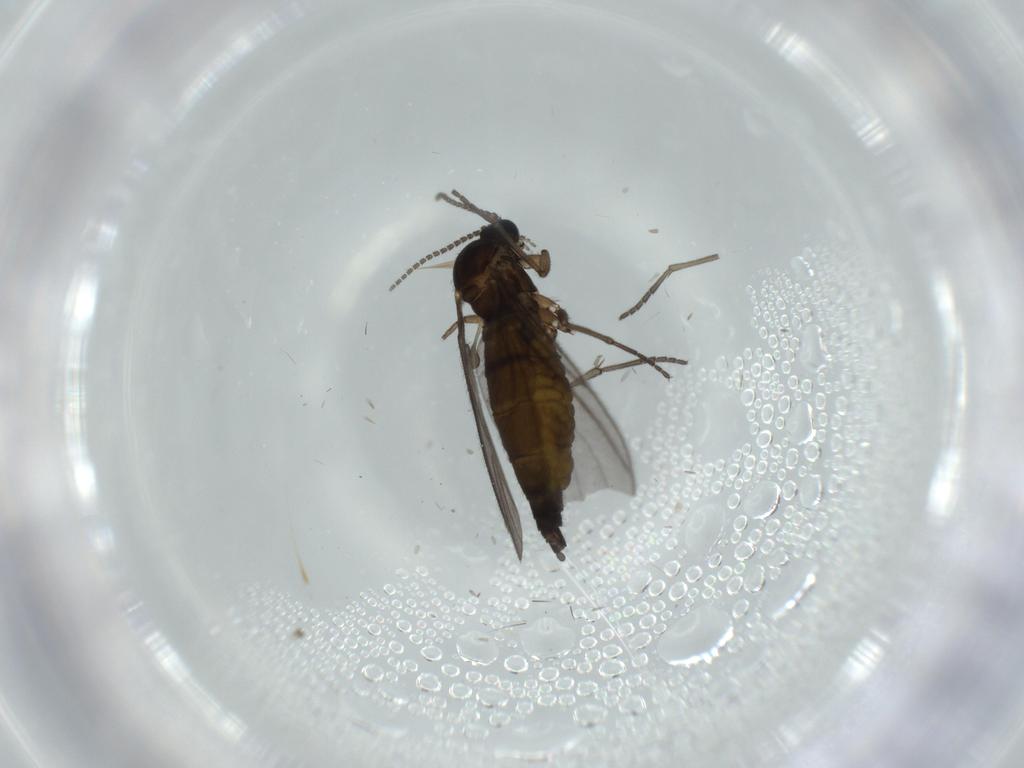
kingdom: Animalia
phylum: Arthropoda
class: Insecta
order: Diptera
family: Sciaridae
